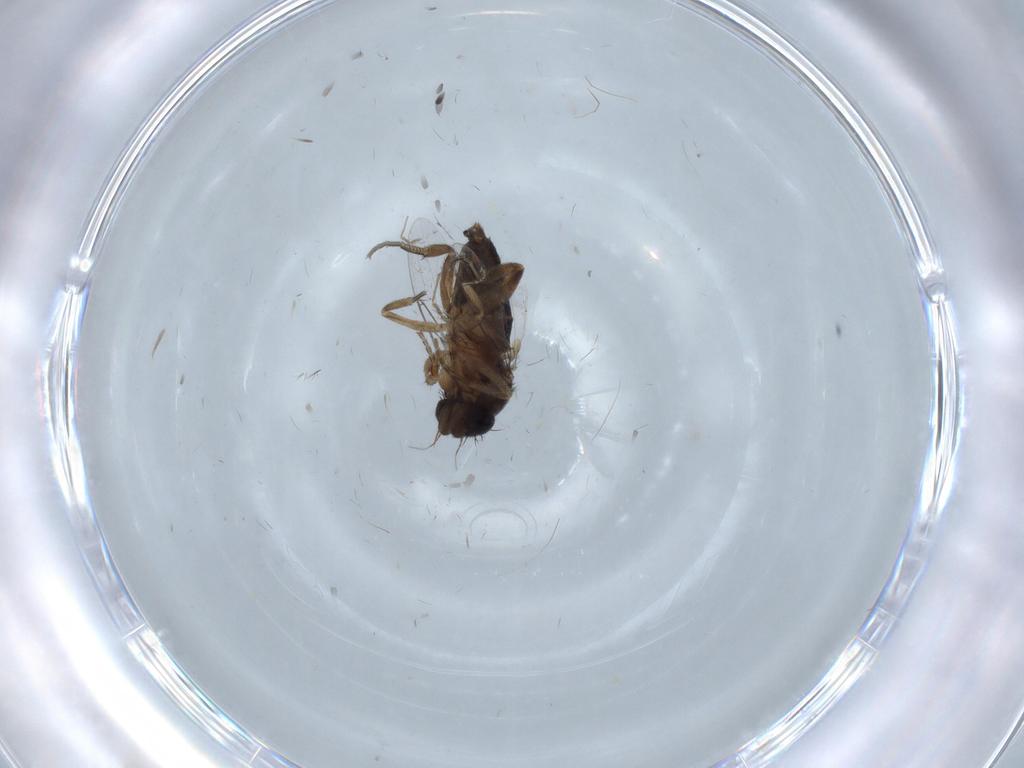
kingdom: Animalia
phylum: Arthropoda
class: Insecta
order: Diptera
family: Phoridae
